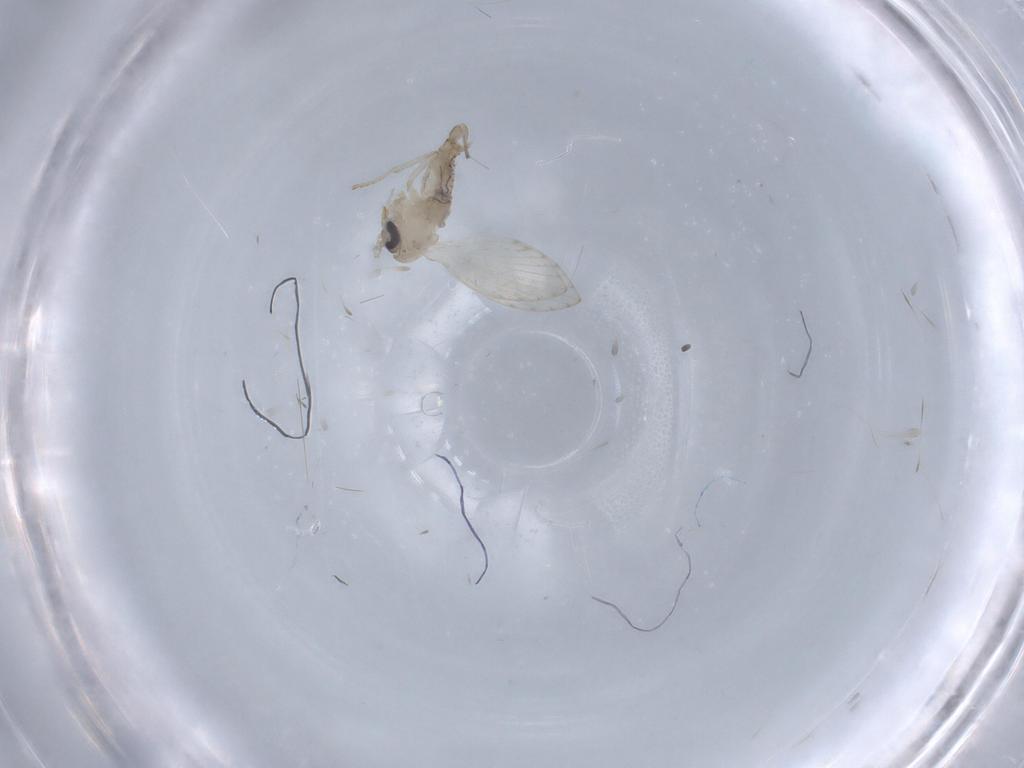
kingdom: Animalia
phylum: Arthropoda
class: Insecta
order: Diptera
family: Psychodidae
